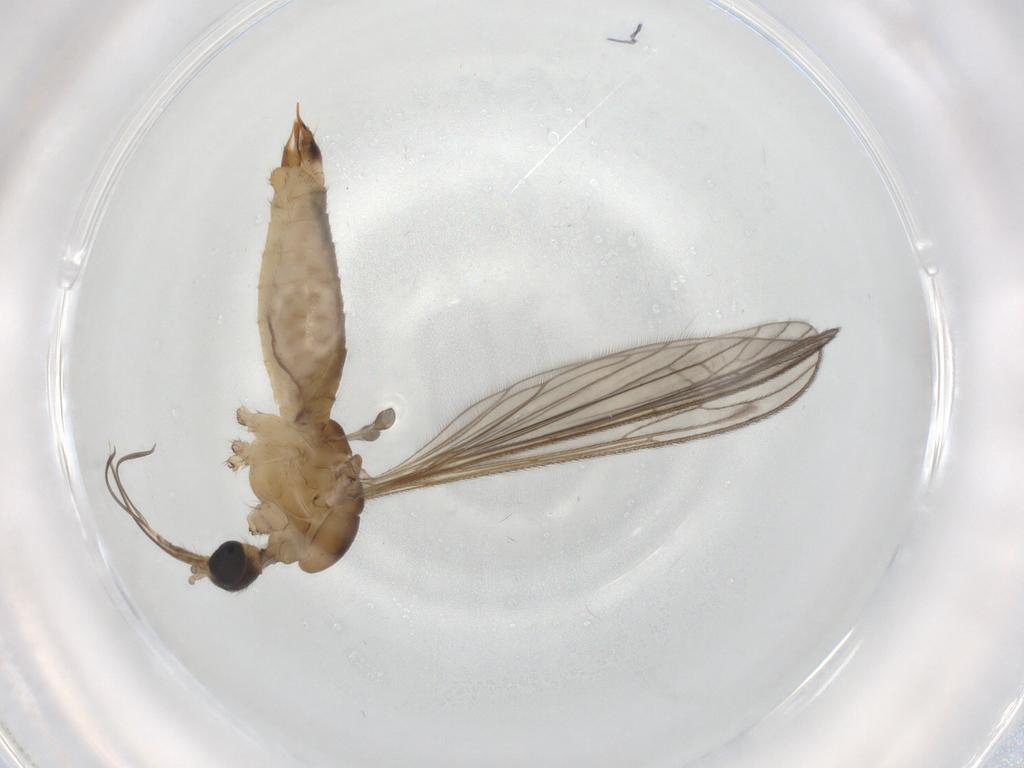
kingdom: Animalia
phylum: Arthropoda
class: Insecta
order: Diptera
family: Limoniidae
